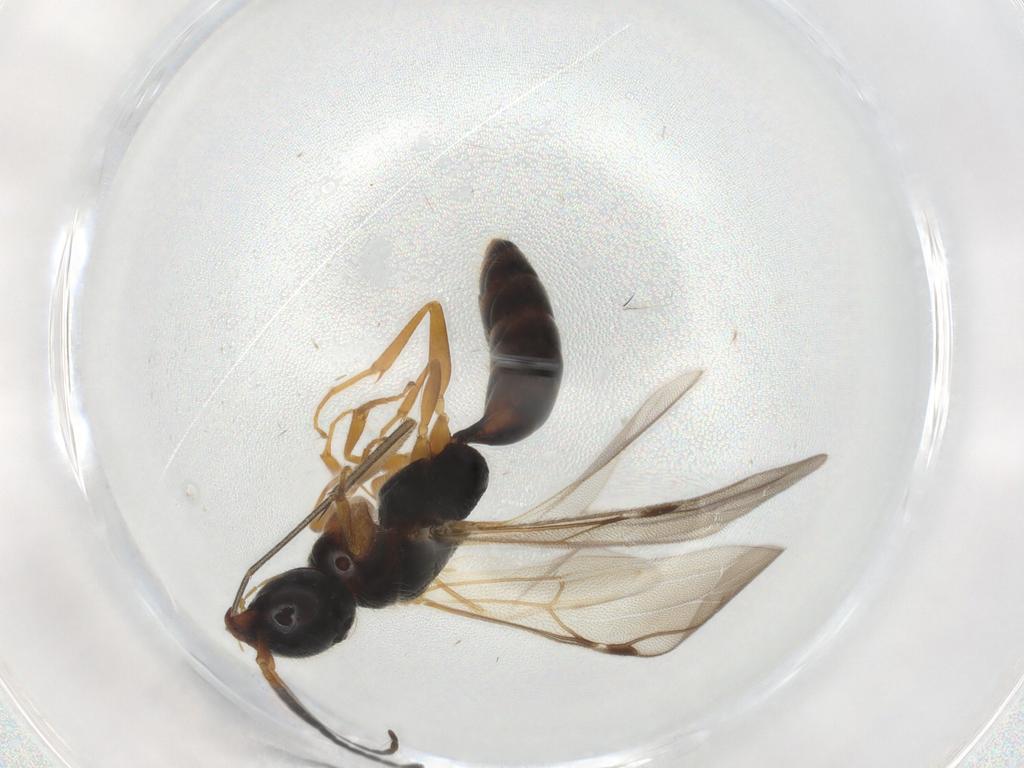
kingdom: Animalia
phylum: Arthropoda
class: Insecta
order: Hymenoptera
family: Bethylidae
